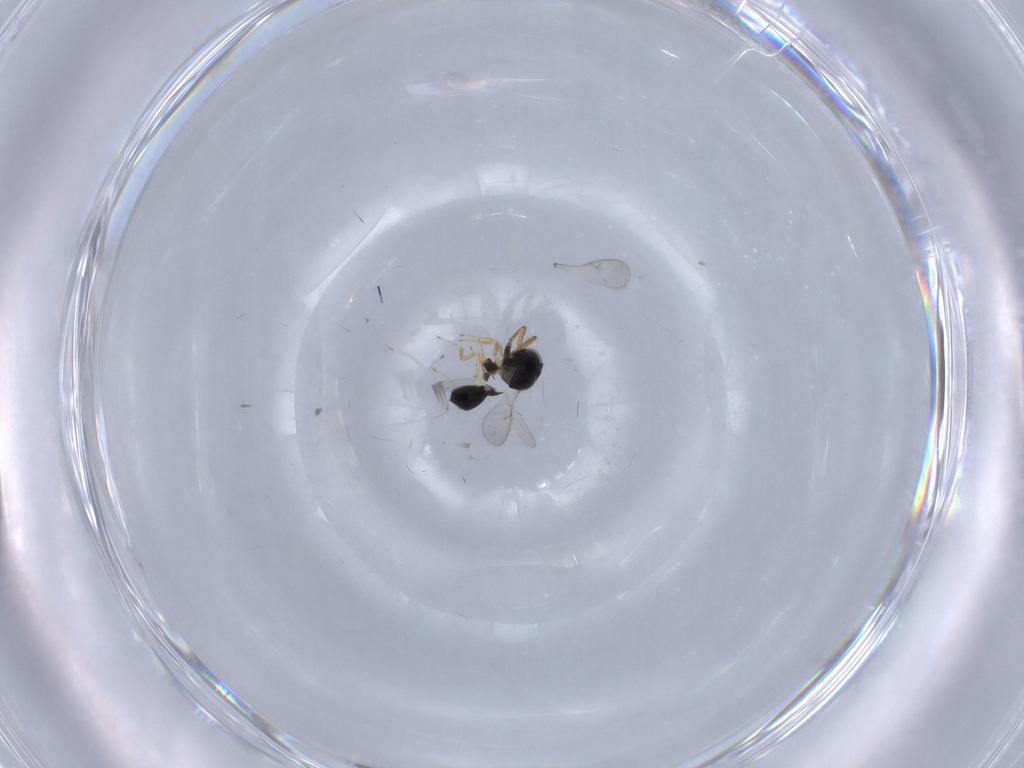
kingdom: Animalia
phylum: Arthropoda
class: Insecta
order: Hymenoptera
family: Scelionidae
